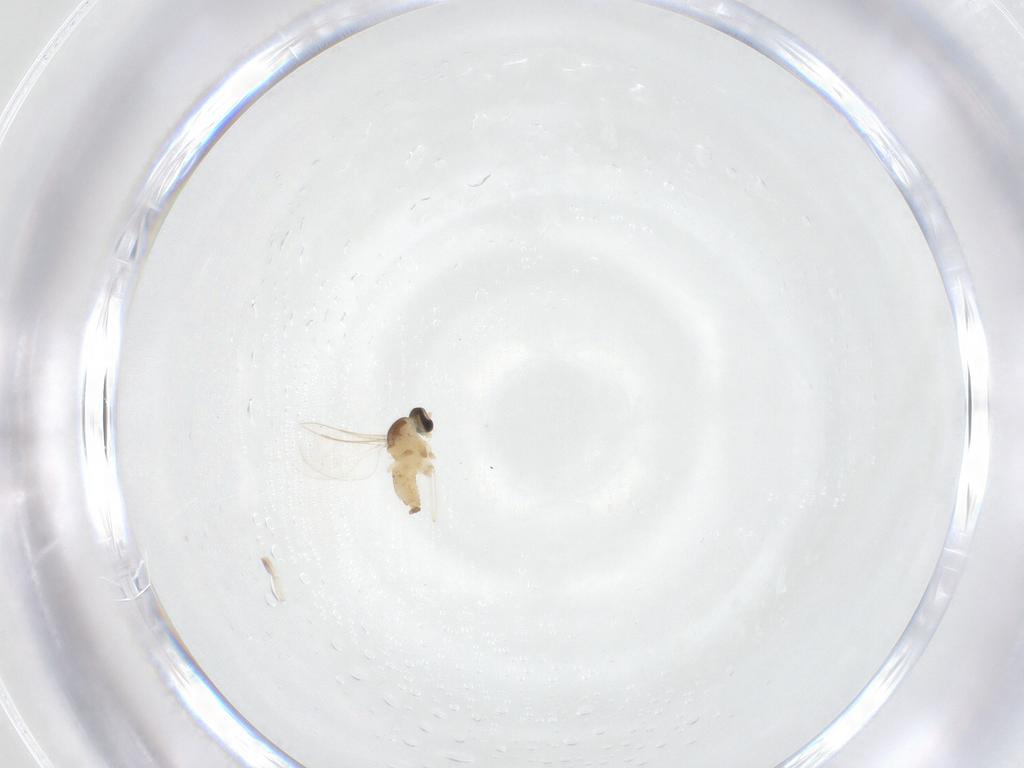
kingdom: Animalia
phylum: Arthropoda
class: Insecta
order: Diptera
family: Cecidomyiidae
